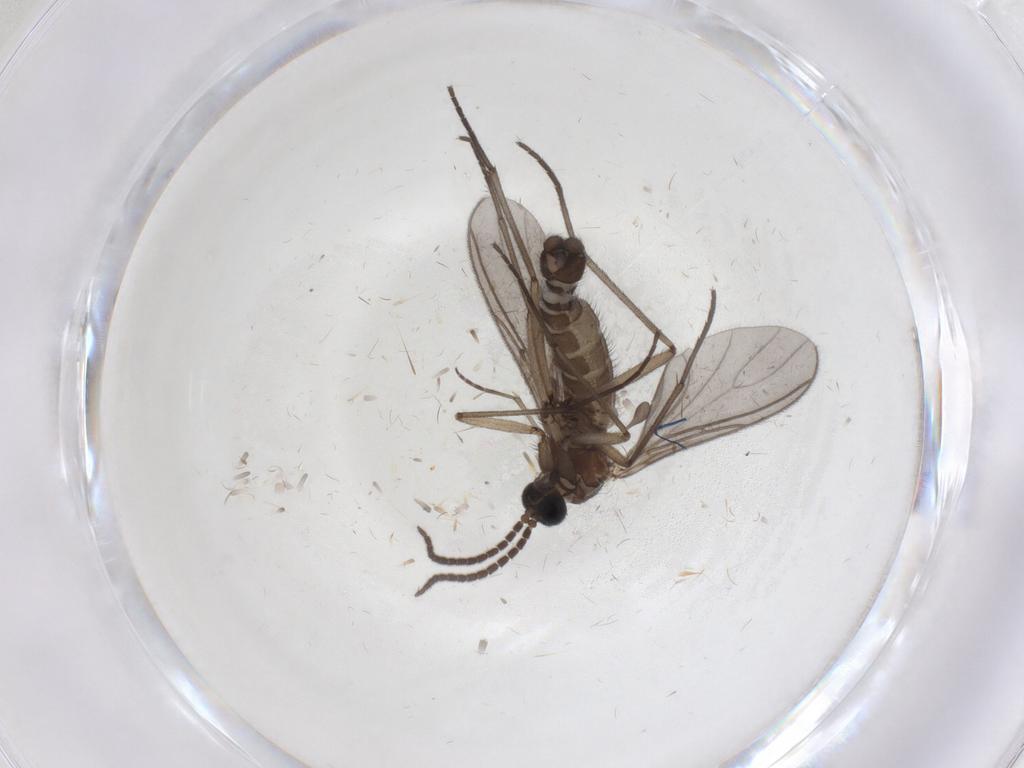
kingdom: Animalia
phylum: Arthropoda
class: Insecta
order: Diptera
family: Sciaridae
